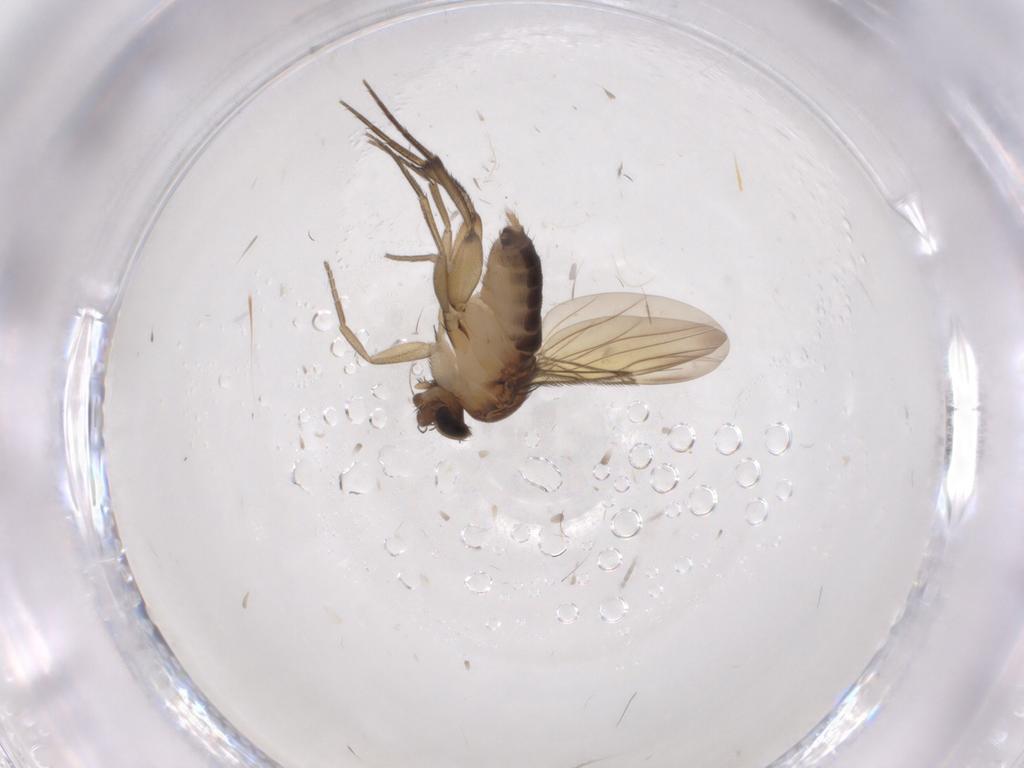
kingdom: Animalia
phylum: Arthropoda
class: Insecta
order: Diptera
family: Phoridae
